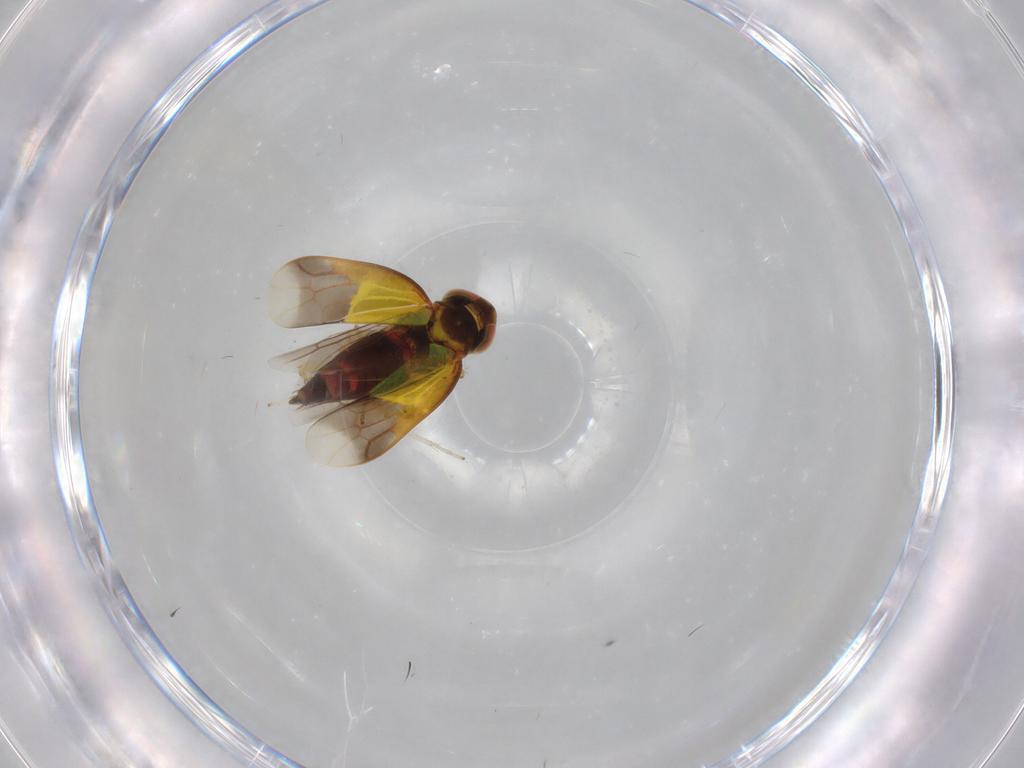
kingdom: Animalia
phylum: Arthropoda
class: Insecta
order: Hemiptera
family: Cicadellidae
